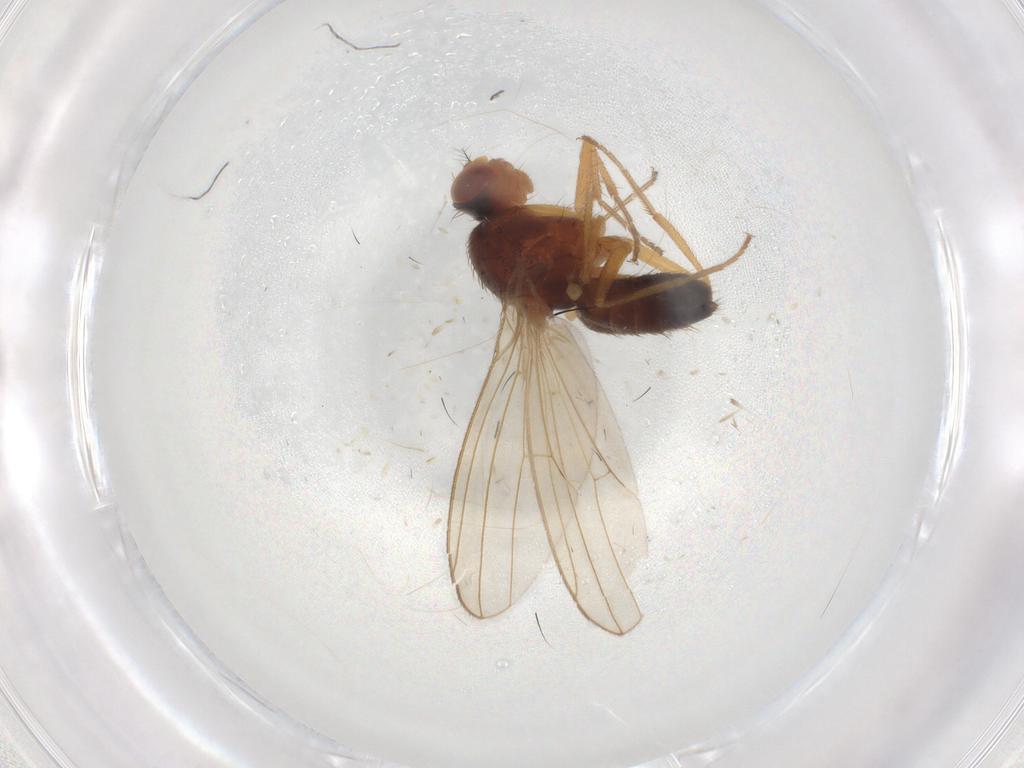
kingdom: Animalia
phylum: Arthropoda
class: Insecta
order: Diptera
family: Drosophilidae
